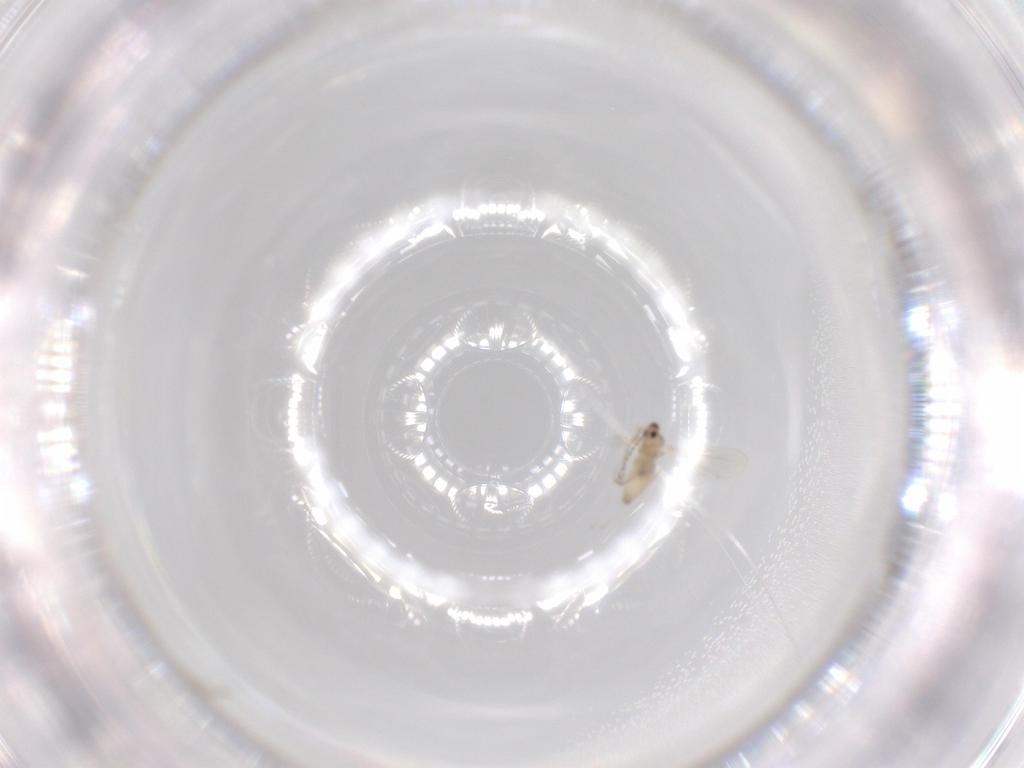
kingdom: Animalia
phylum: Arthropoda
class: Insecta
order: Diptera
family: Cecidomyiidae
